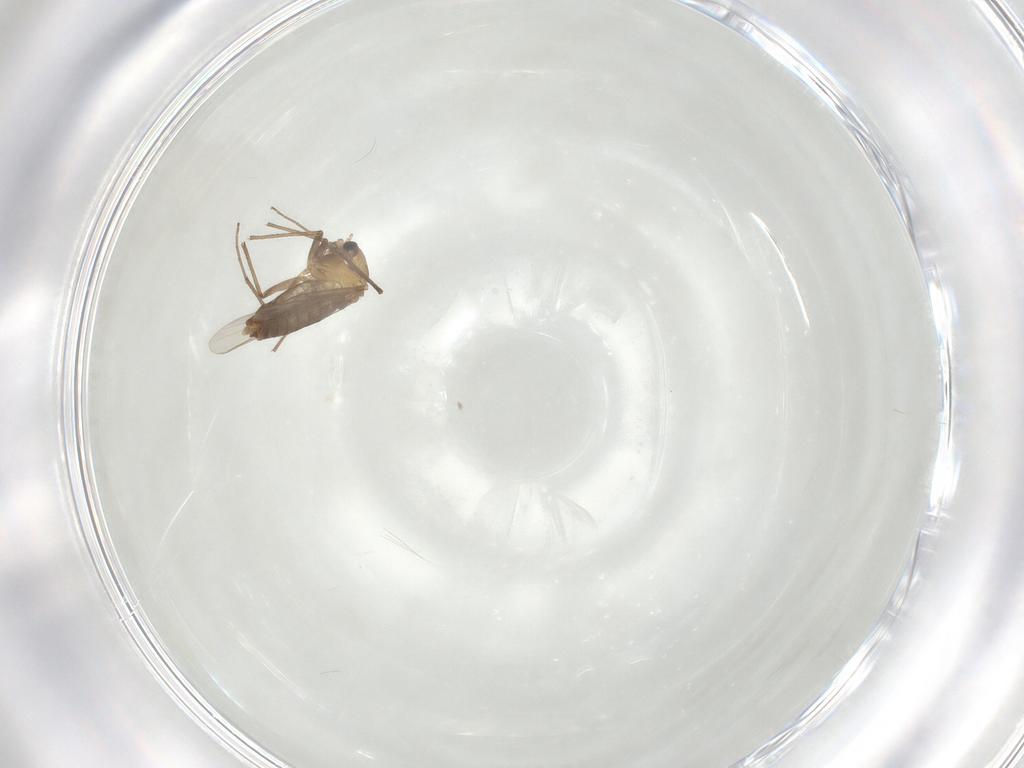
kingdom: Animalia
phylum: Arthropoda
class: Insecta
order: Diptera
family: Chironomidae
